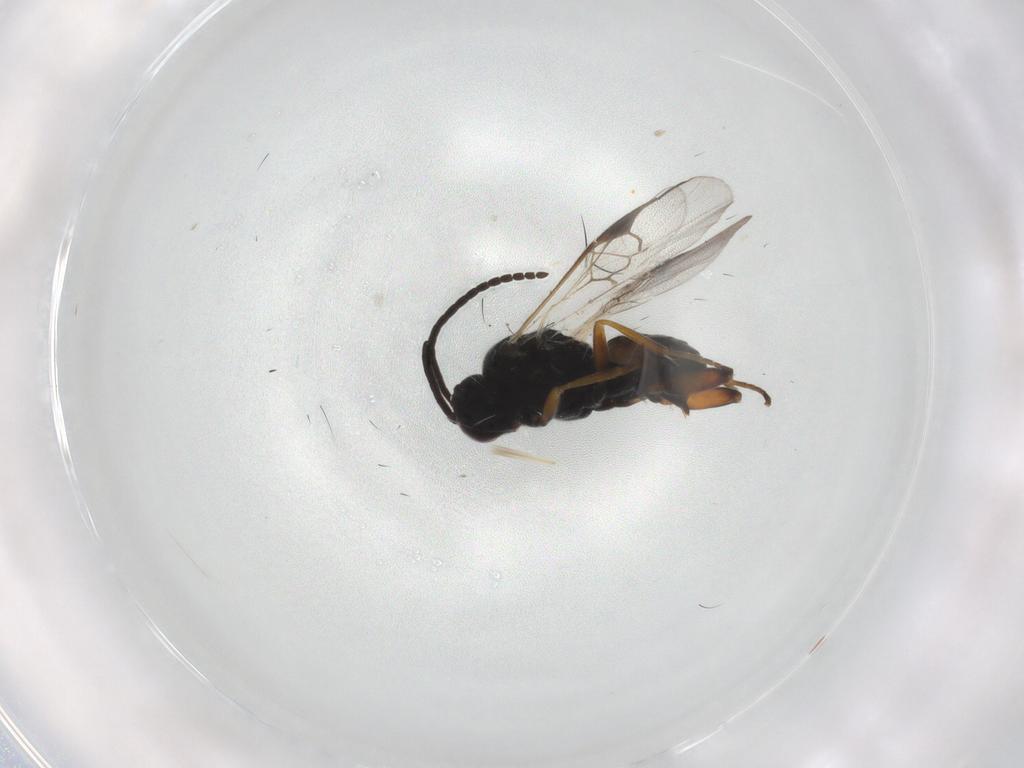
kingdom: Animalia
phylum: Arthropoda
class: Insecta
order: Hymenoptera
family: Braconidae
